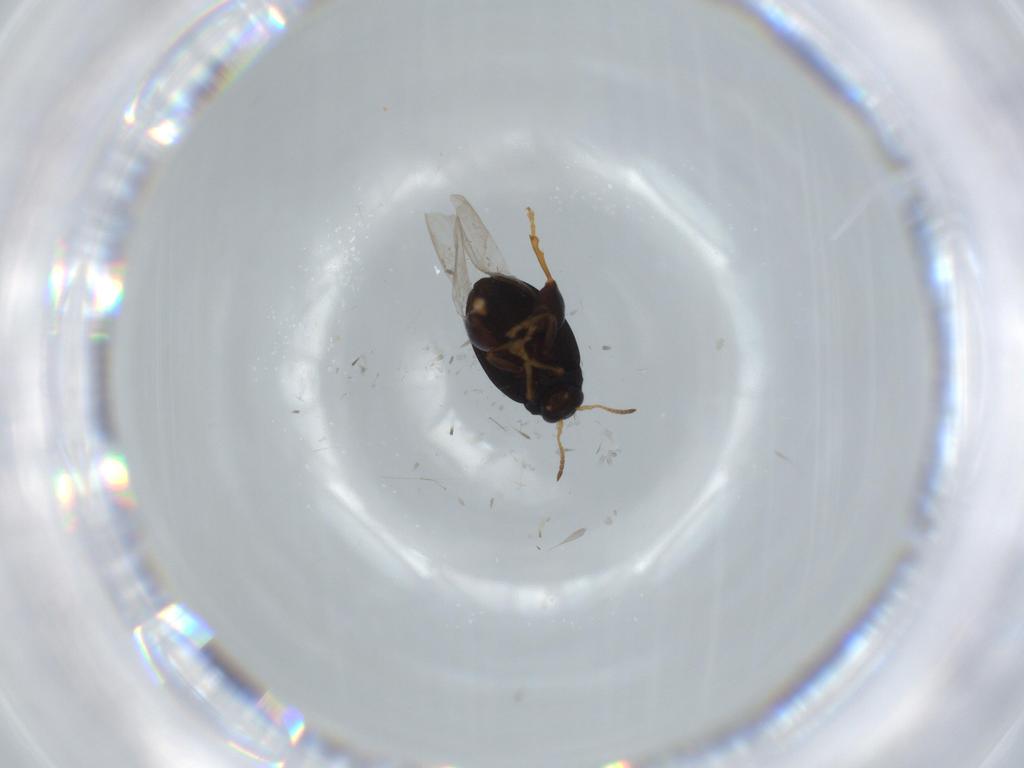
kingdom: Animalia
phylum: Arthropoda
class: Insecta
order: Coleoptera
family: Chrysomelidae
